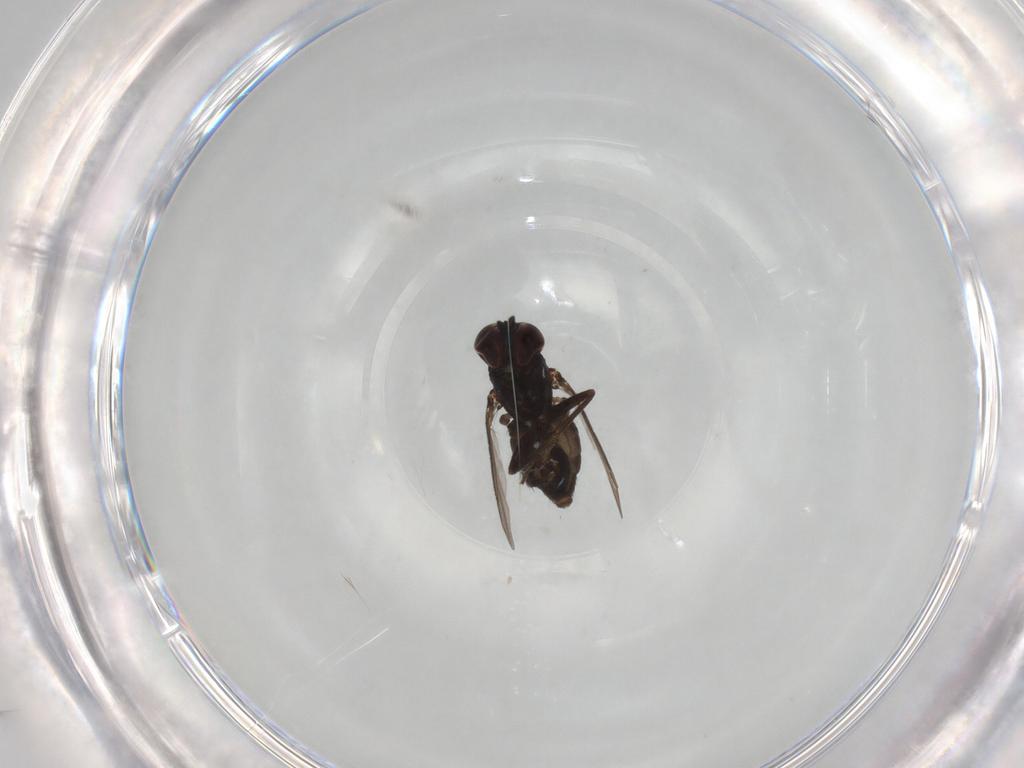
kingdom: Animalia
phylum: Arthropoda
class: Insecta
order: Diptera
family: Dolichopodidae
